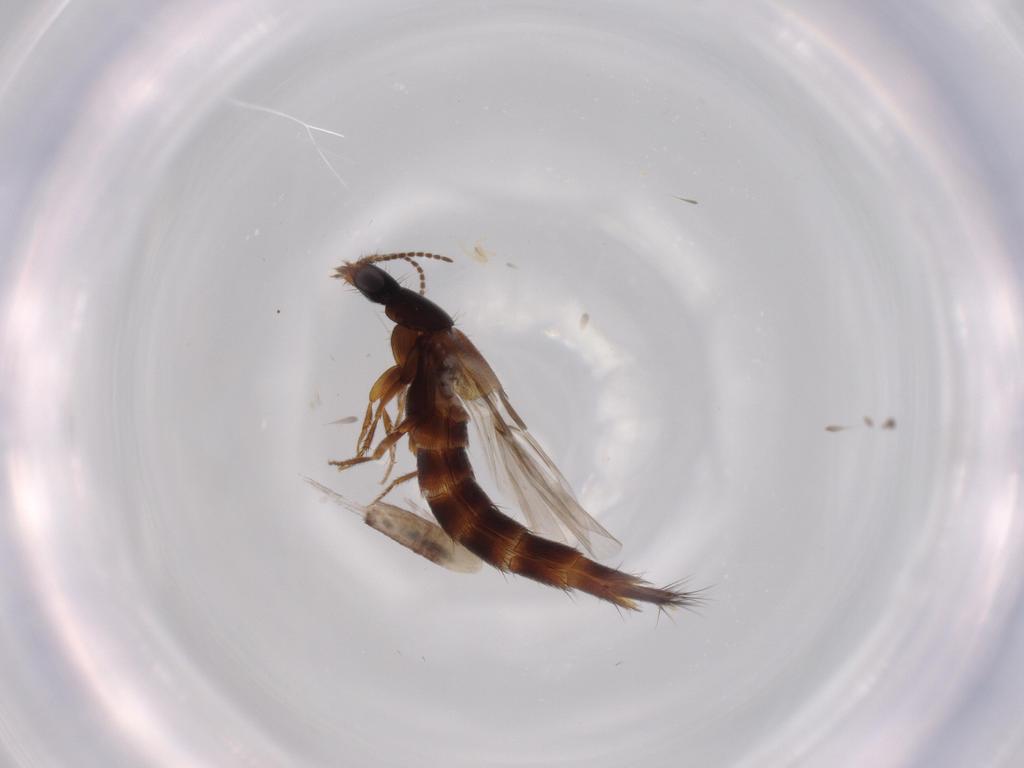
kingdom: Animalia
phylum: Arthropoda
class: Collembola
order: Entomobryomorpha
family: Entomobryidae
